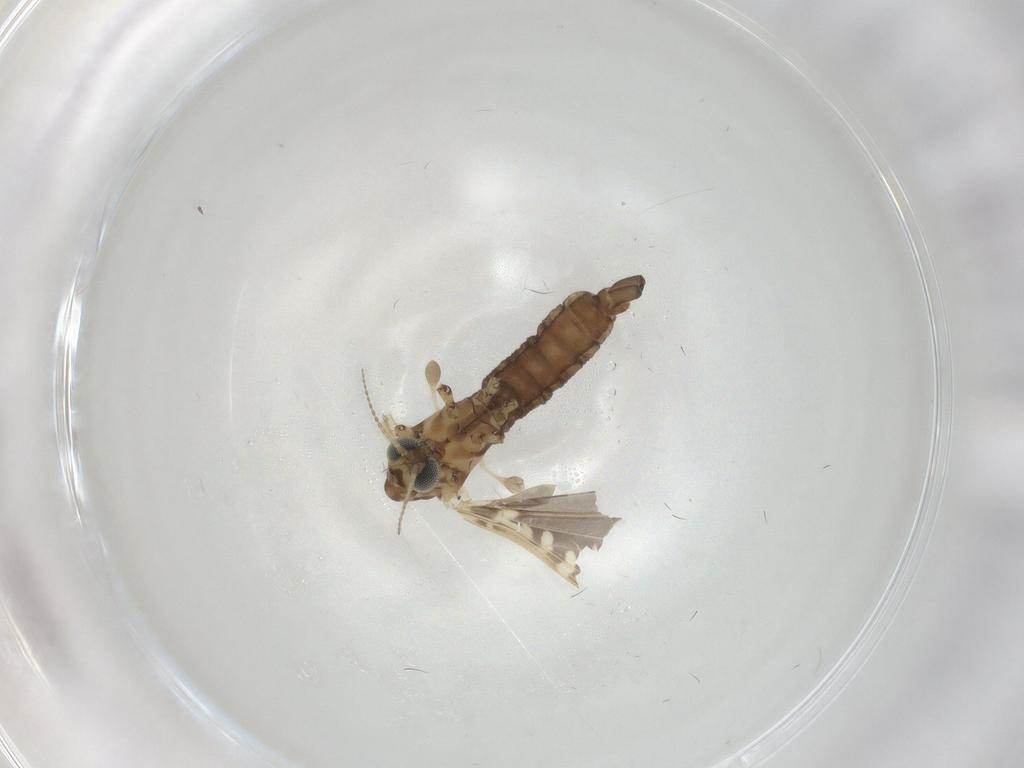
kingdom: Animalia
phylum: Arthropoda
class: Insecta
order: Diptera
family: Limoniidae
